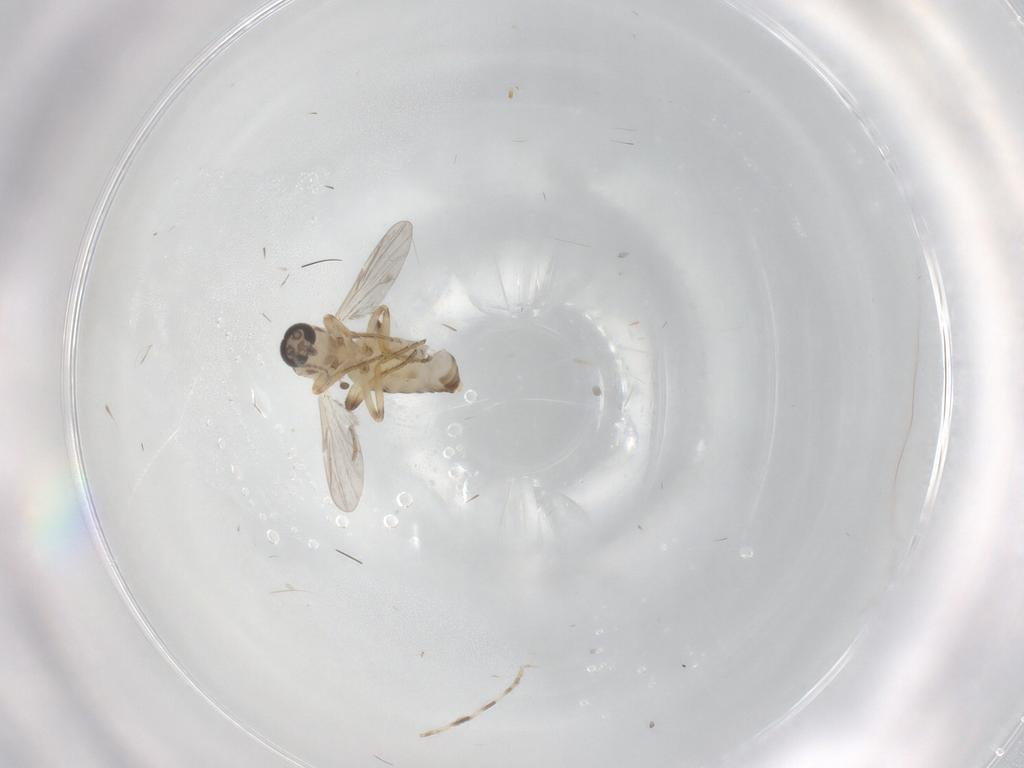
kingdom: Animalia
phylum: Arthropoda
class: Insecta
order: Diptera
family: Ceratopogonidae
